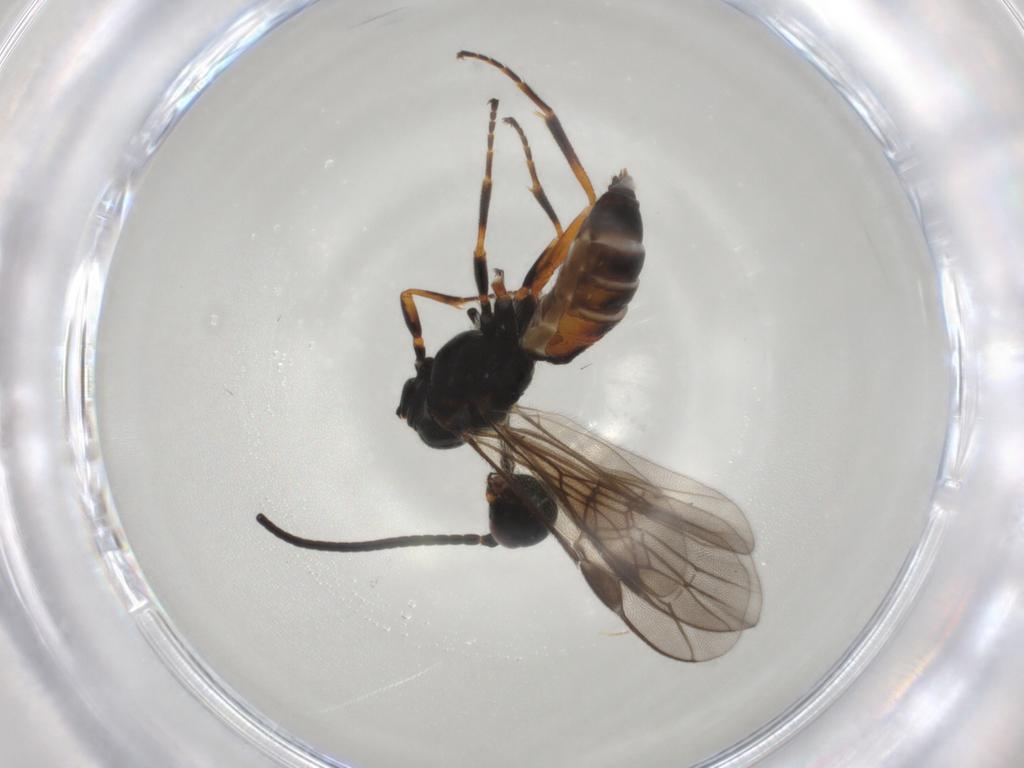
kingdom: Animalia
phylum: Arthropoda
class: Insecta
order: Hymenoptera
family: Braconidae
